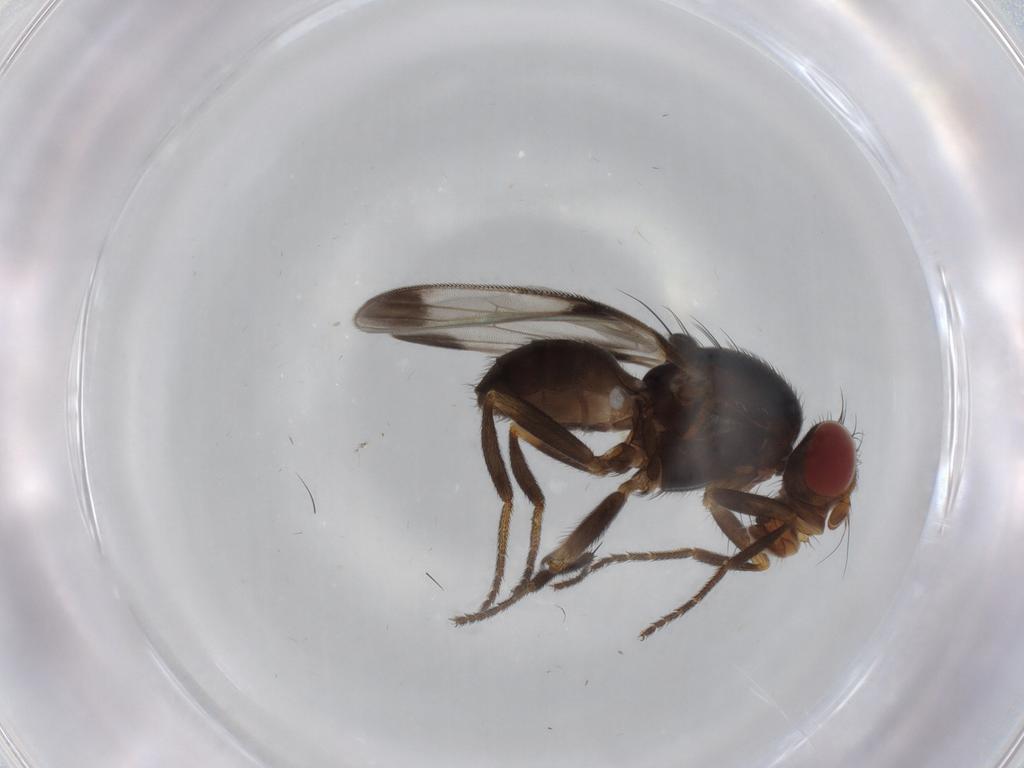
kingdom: Animalia
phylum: Arthropoda
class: Insecta
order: Diptera
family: Ulidiidae
